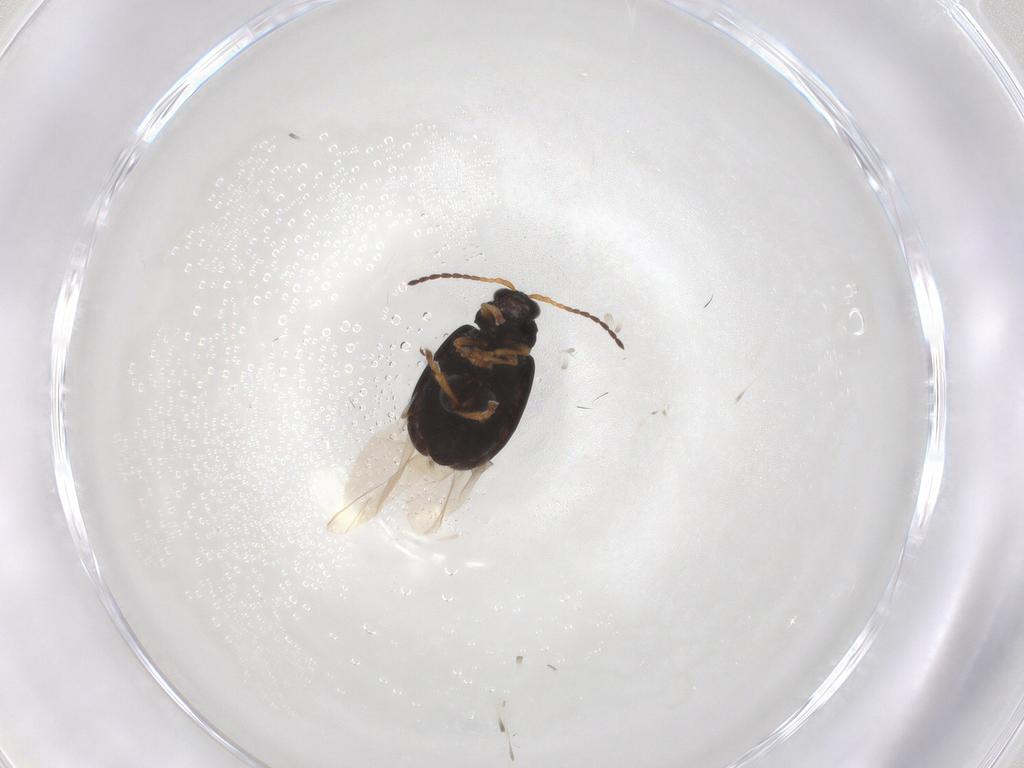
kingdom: Animalia
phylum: Arthropoda
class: Insecta
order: Coleoptera
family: Chrysomelidae
